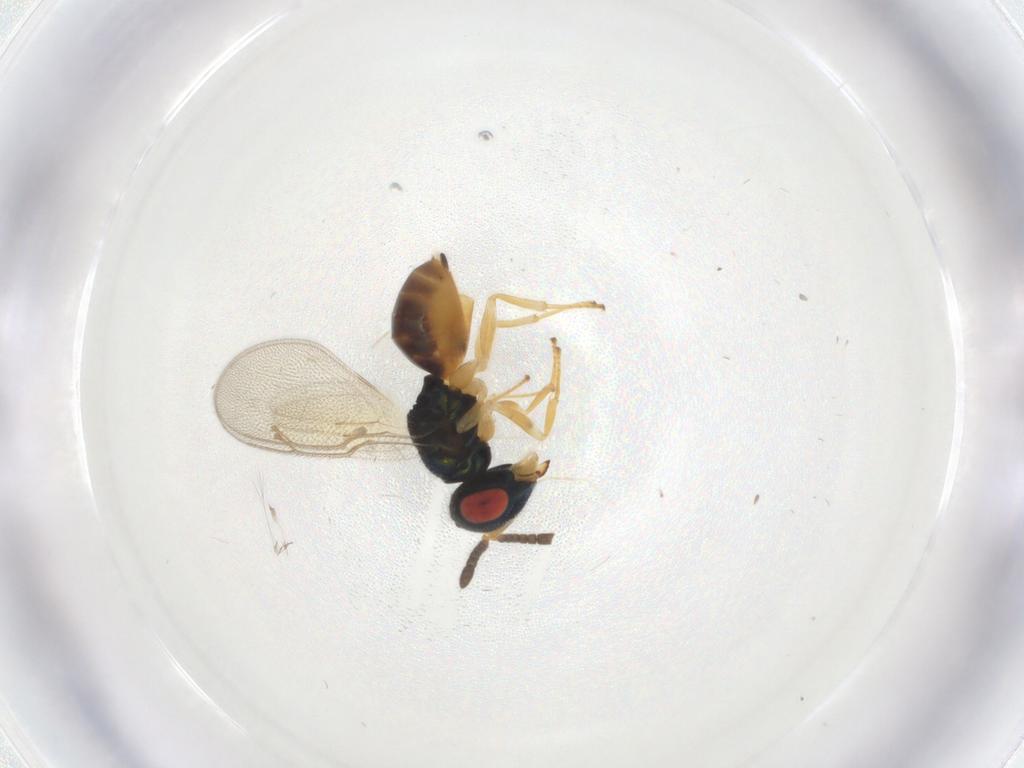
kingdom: Animalia
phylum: Arthropoda
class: Insecta
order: Hymenoptera
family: Pteromalidae
